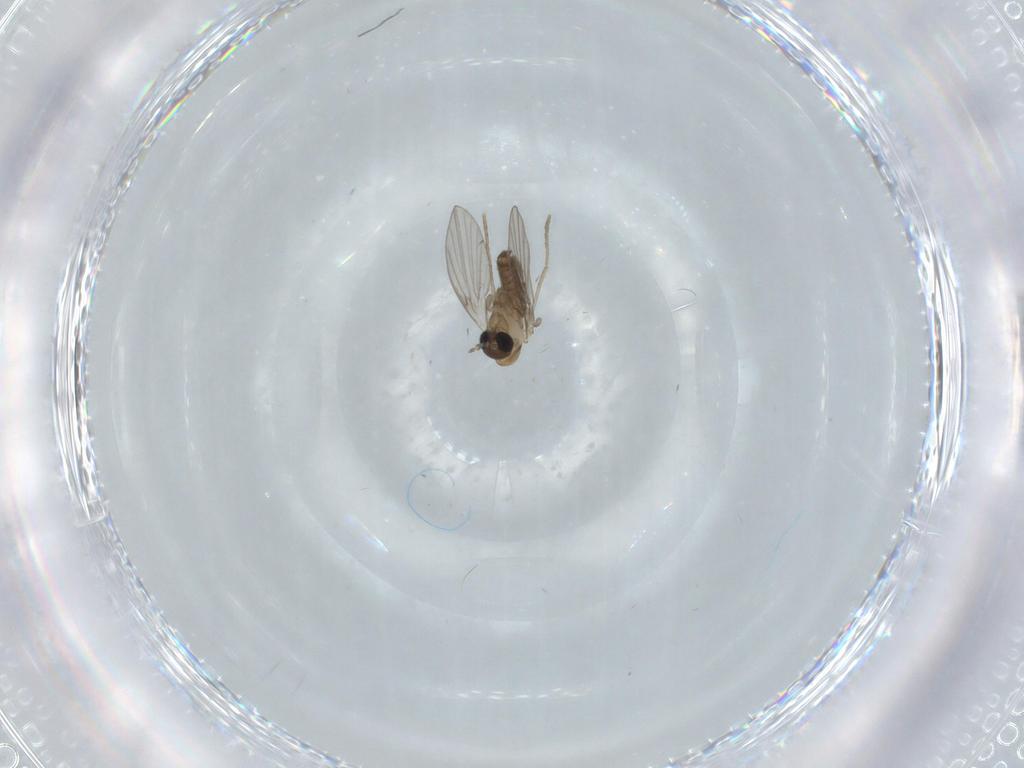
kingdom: Animalia
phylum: Arthropoda
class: Insecta
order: Diptera
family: Psychodidae
